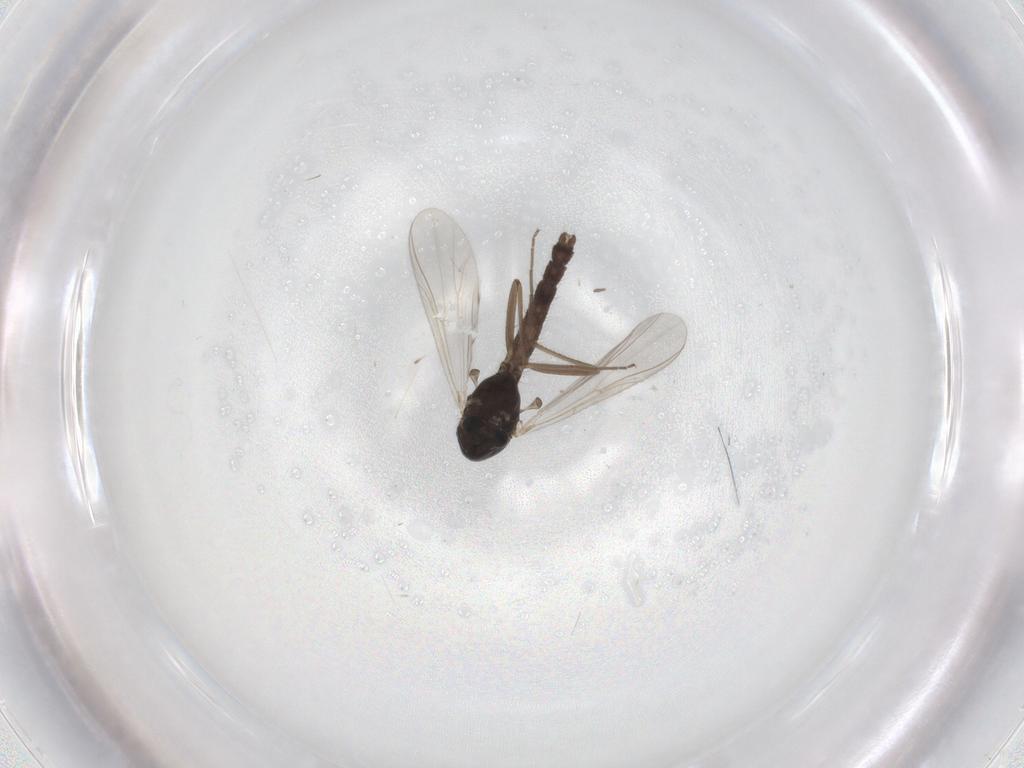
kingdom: Animalia
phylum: Arthropoda
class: Insecta
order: Diptera
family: Chironomidae
